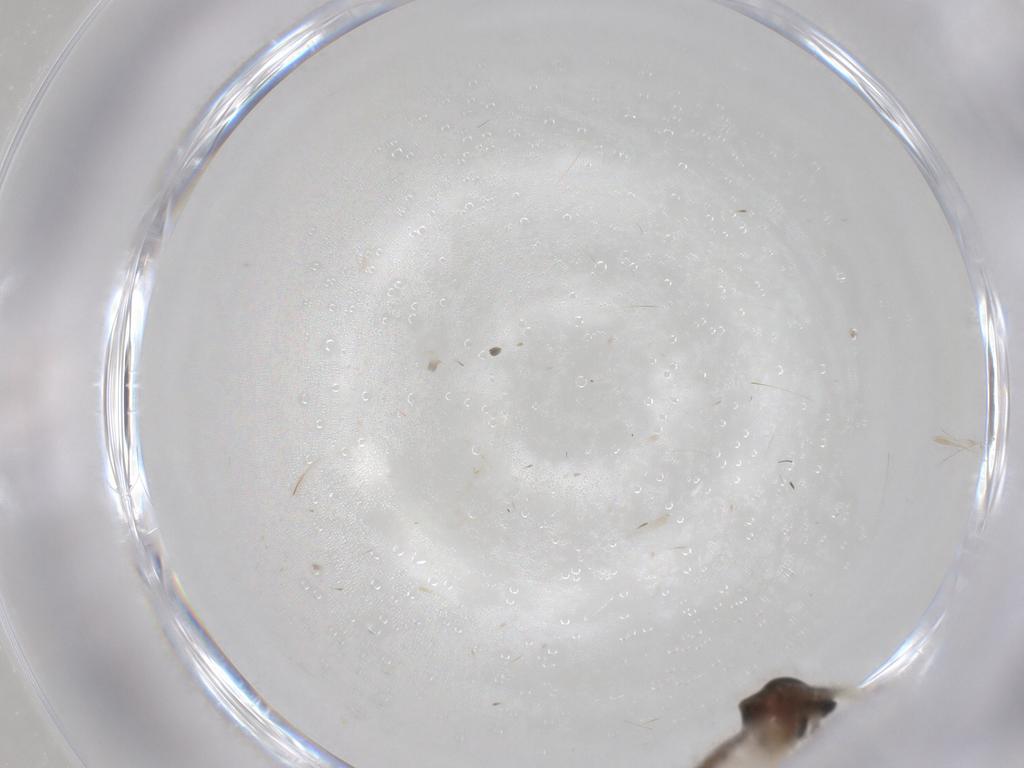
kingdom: Animalia
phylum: Arthropoda
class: Insecta
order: Diptera
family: Ceratopogonidae
